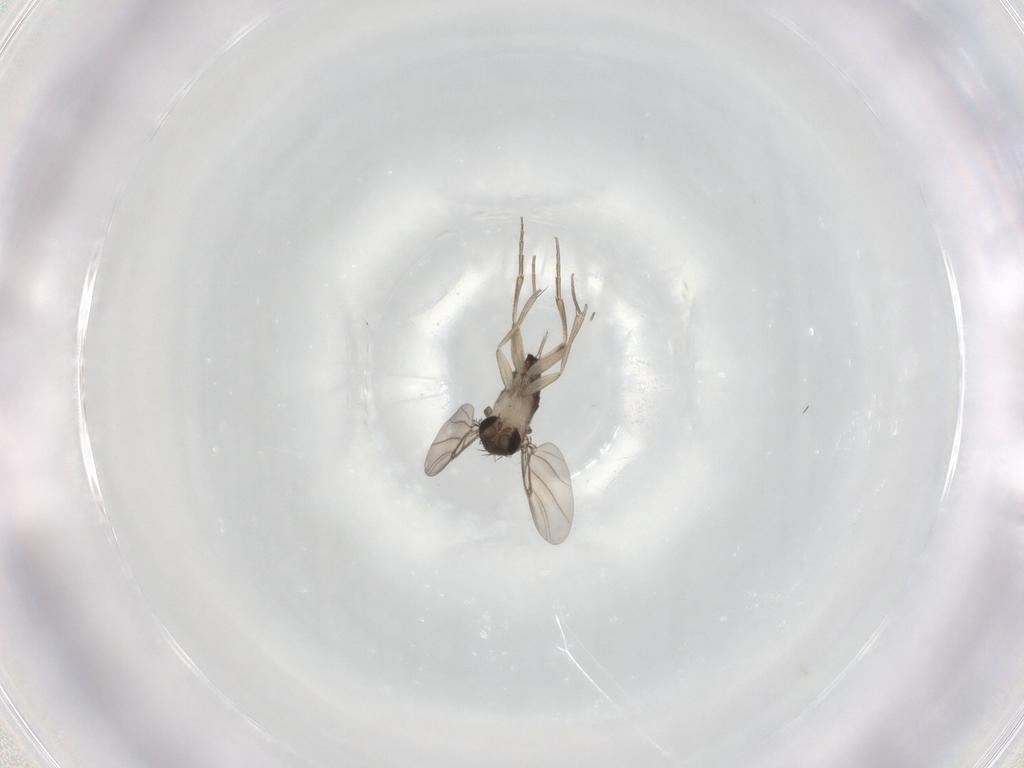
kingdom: Animalia
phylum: Arthropoda
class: Insecta
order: Diptera
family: Phoridae
